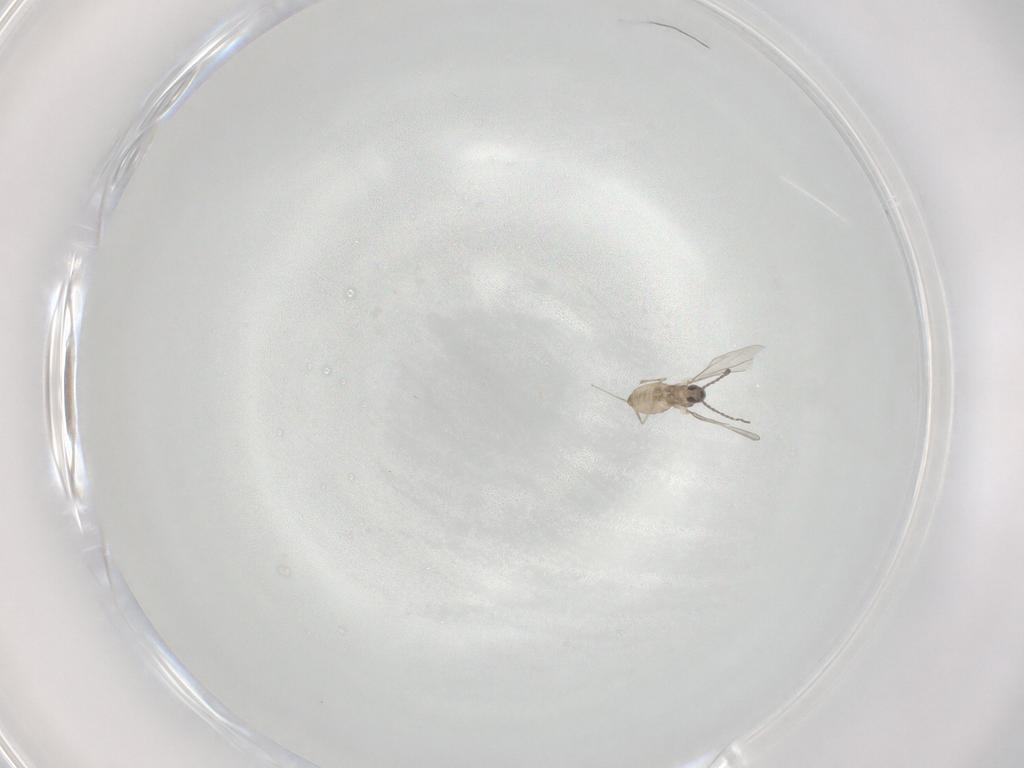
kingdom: Animalia
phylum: Arthropoda
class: Insecta
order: Diptera
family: Cecidomyiidae
